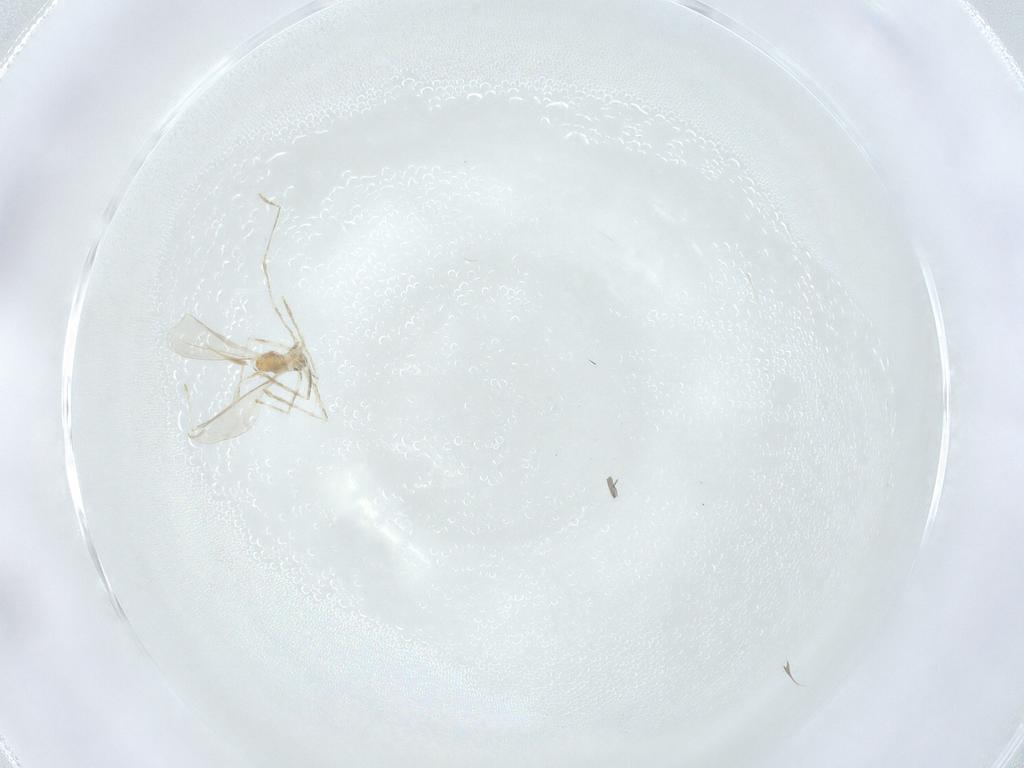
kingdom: Animalia
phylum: Arthropoda
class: Insecta
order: Diptera
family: Cecidomyiidae
